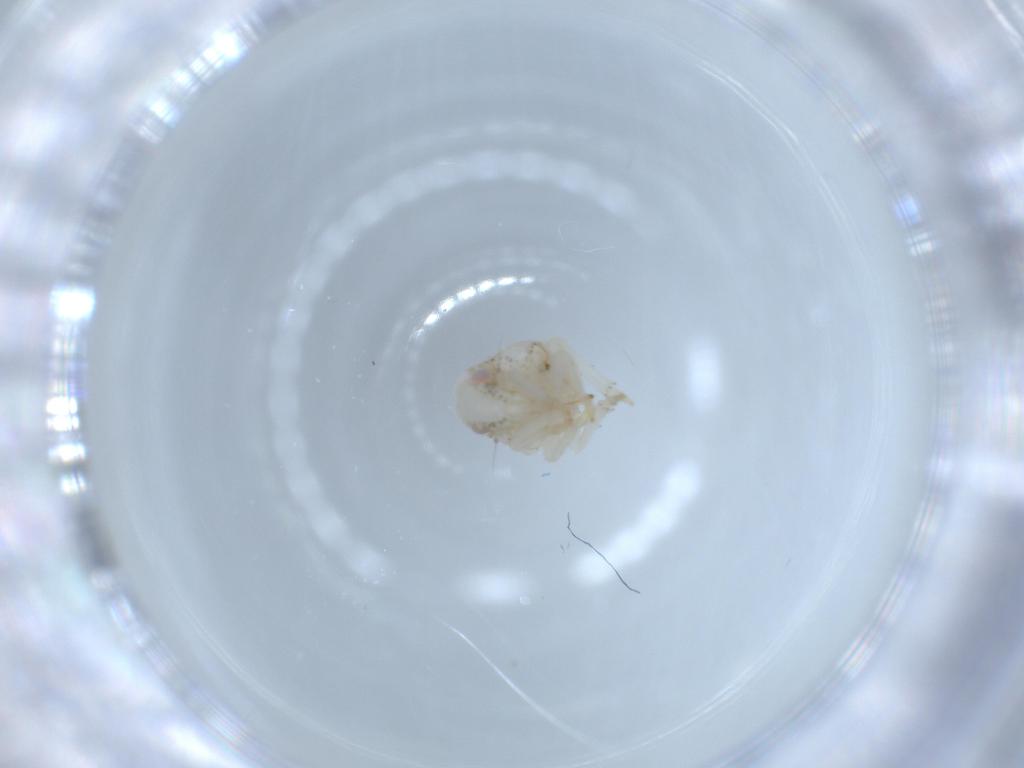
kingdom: Animalia
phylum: Arthropoda
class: Insecta
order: Hemiptera
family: Acanaloniidae
